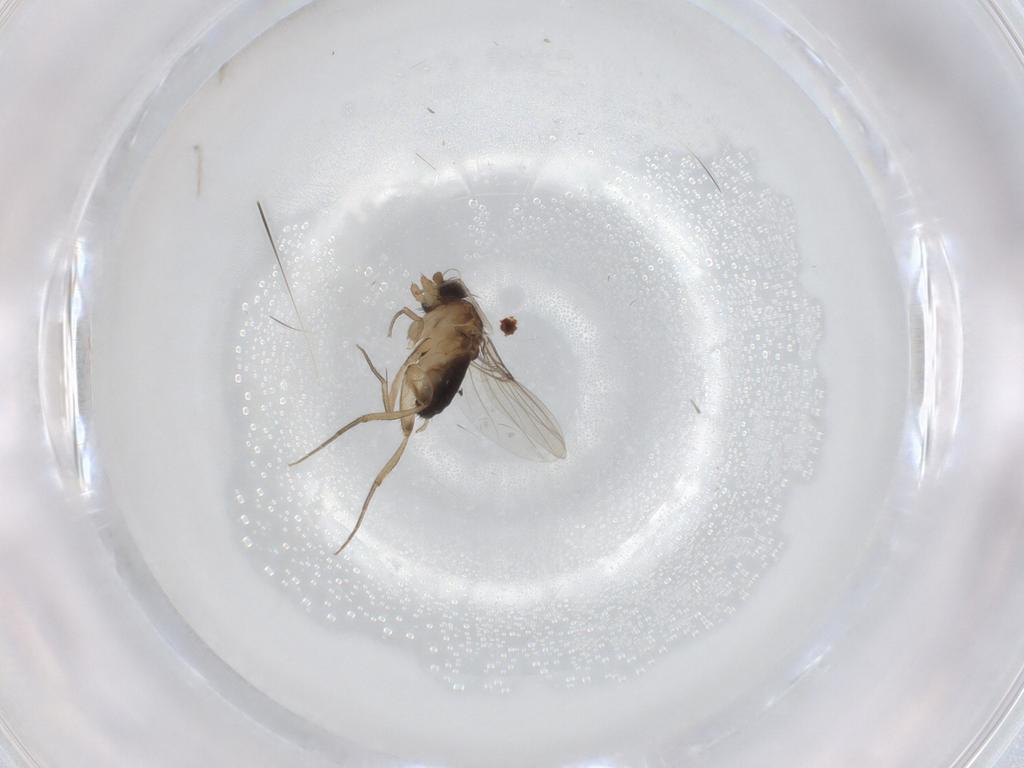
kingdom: Animalia
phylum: Arthropoda
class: Insecta
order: Diptera
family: Chironomidae
